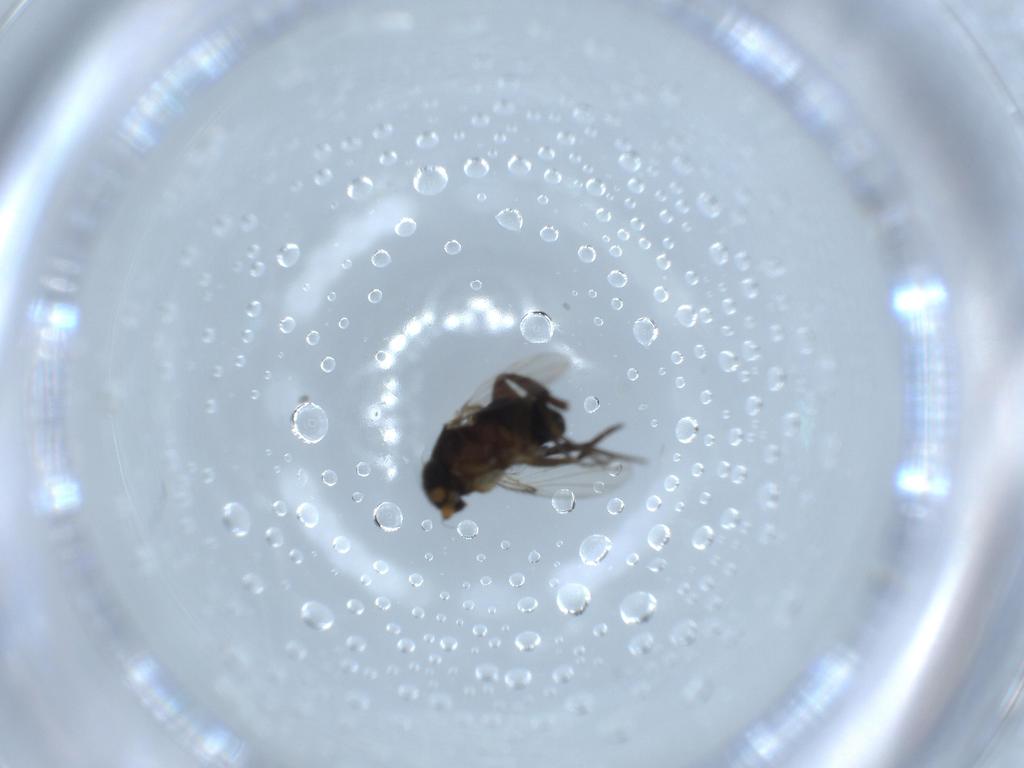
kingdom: Animalia
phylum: Arthropoda
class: Insecta
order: Diptera
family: Phoridae
